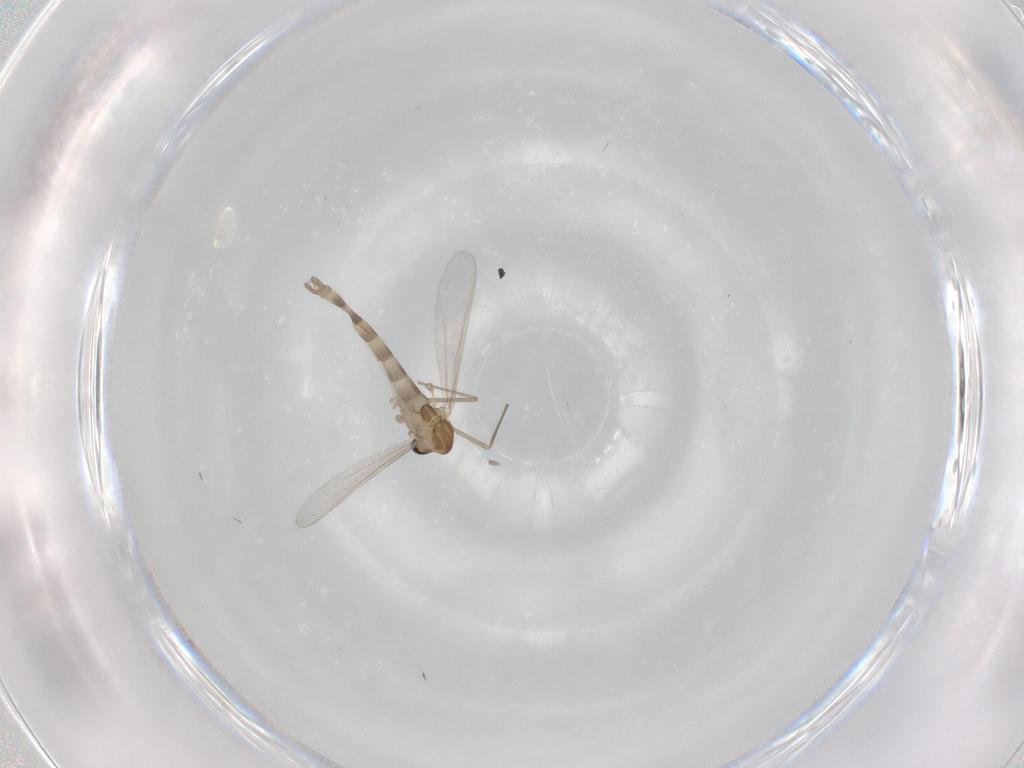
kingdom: Animalia
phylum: Arthropoda
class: Insecta
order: Diptera
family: Chironomidae
